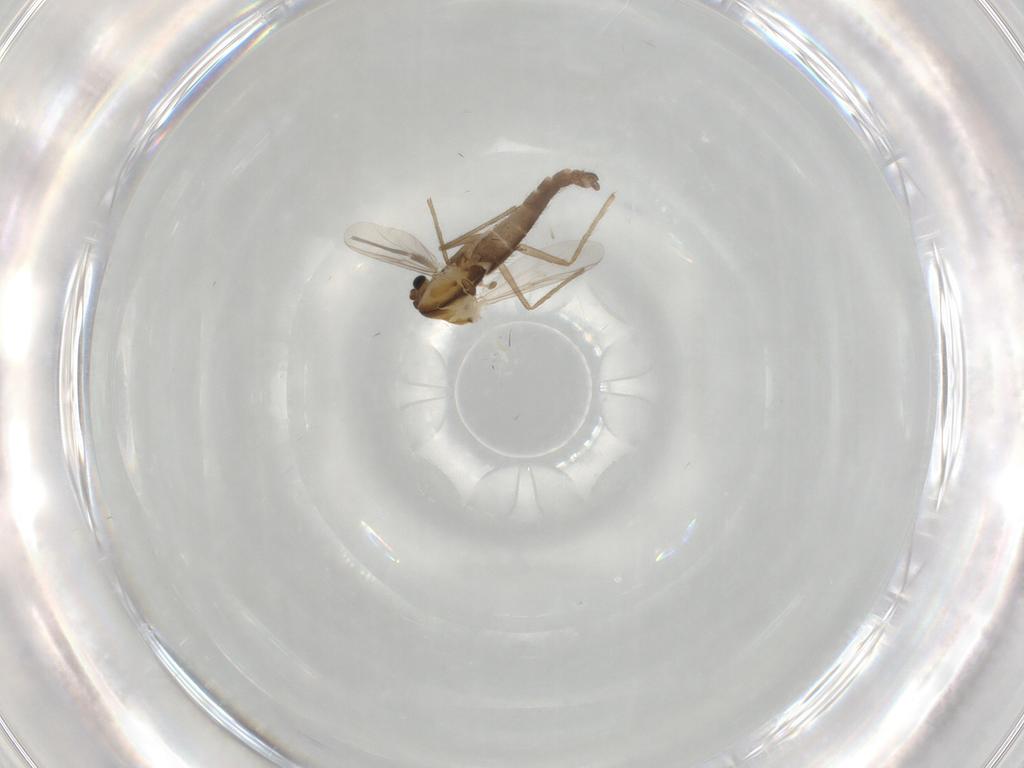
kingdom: Animalia
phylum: Arthropoda
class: Insecta
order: Diptera
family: Chironomidae
